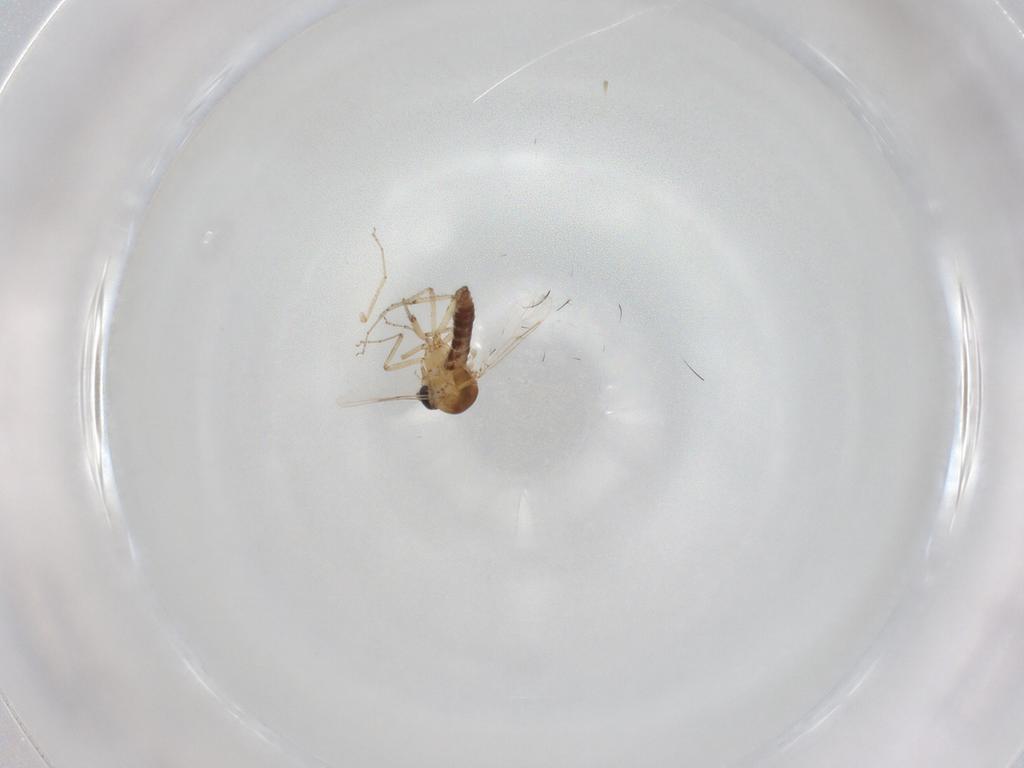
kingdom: Animalia
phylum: Arthropoda
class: Insecta
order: Diptera
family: Ceratopogonidae
